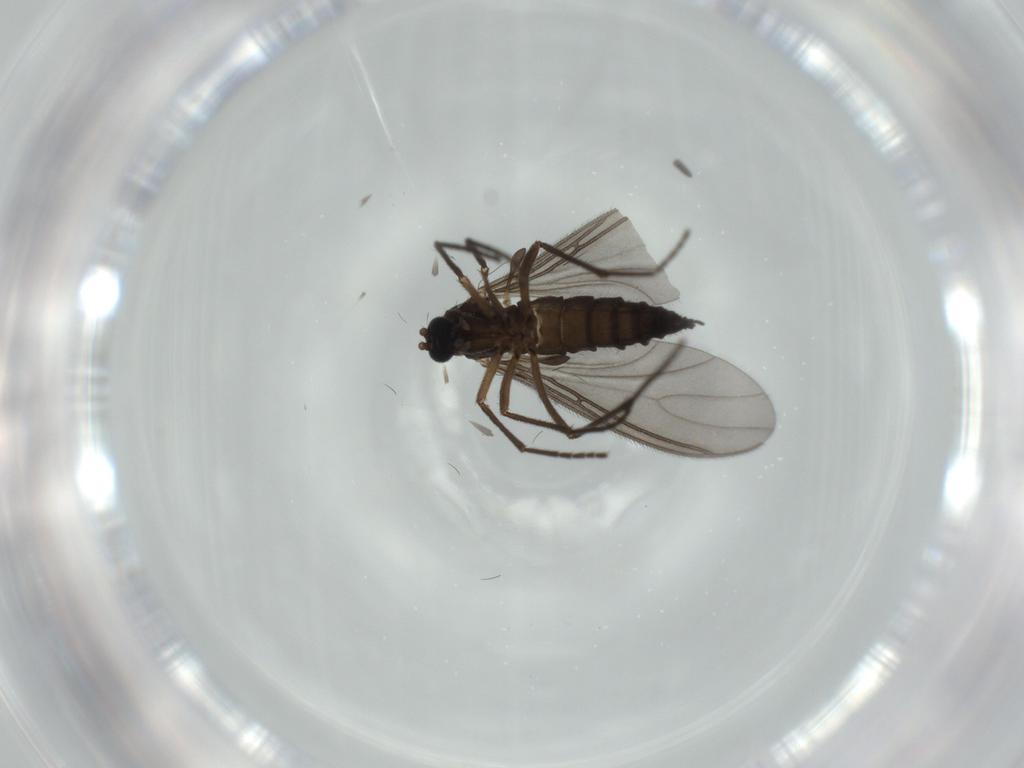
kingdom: Animalia
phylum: Arthropoda
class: Insecta
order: Diptera
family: Sciaridae
